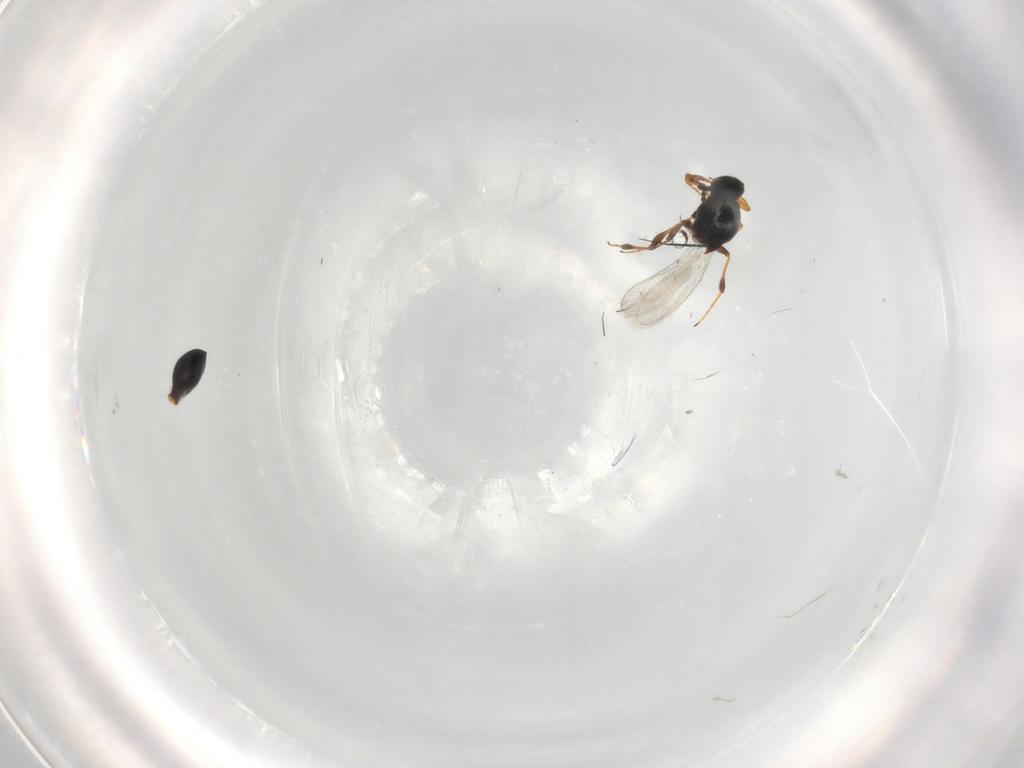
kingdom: Animalia
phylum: Arthropoda
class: Insecta
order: Hymenoptera
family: Platygastridae
